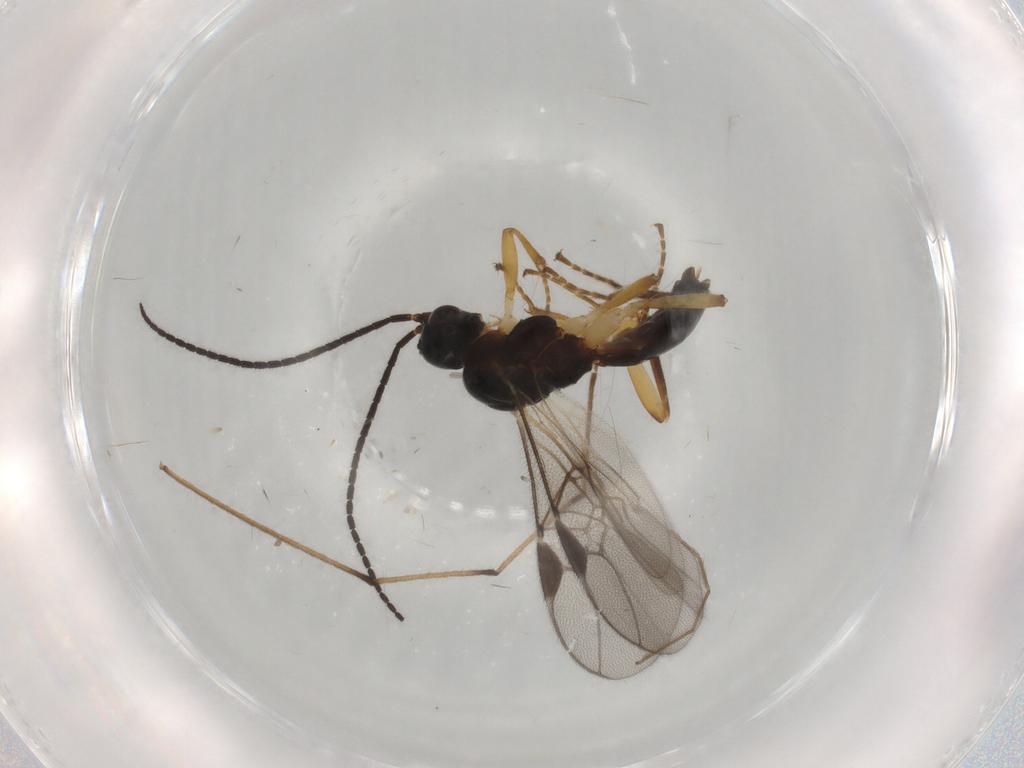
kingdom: Animalia
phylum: Arthropoda
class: Insecta
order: Hymenoptera
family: Braconidae
